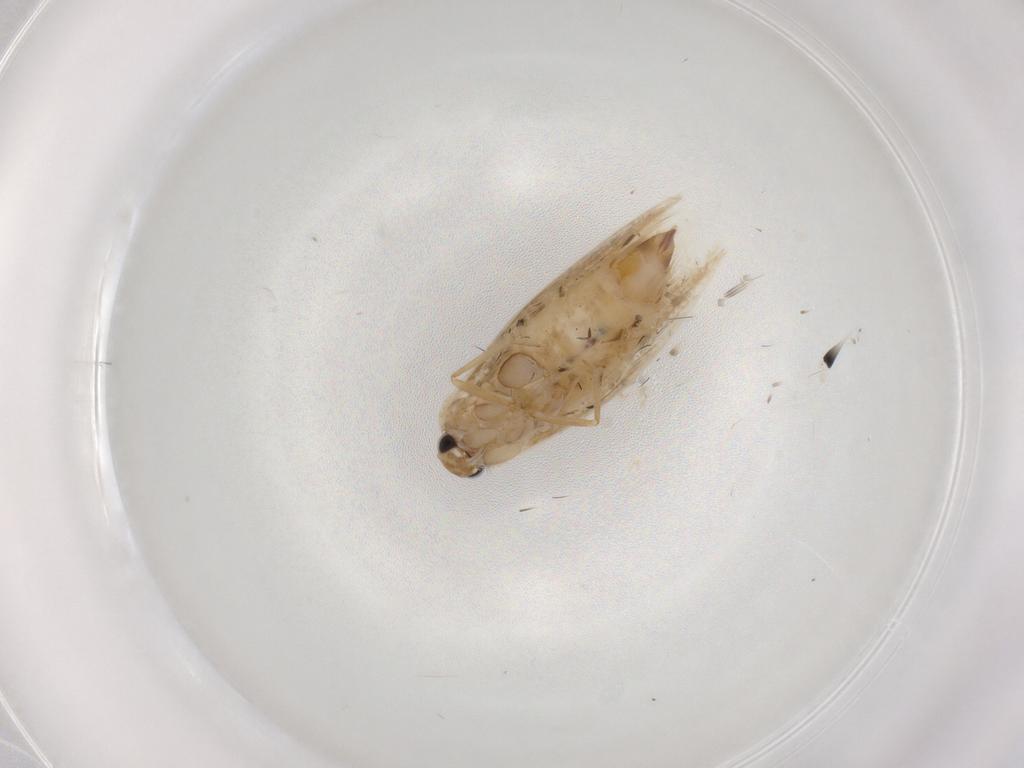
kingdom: Animalia
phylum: Arthropoda
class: Insecta
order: Lepidoptera
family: Bucculatricidae
